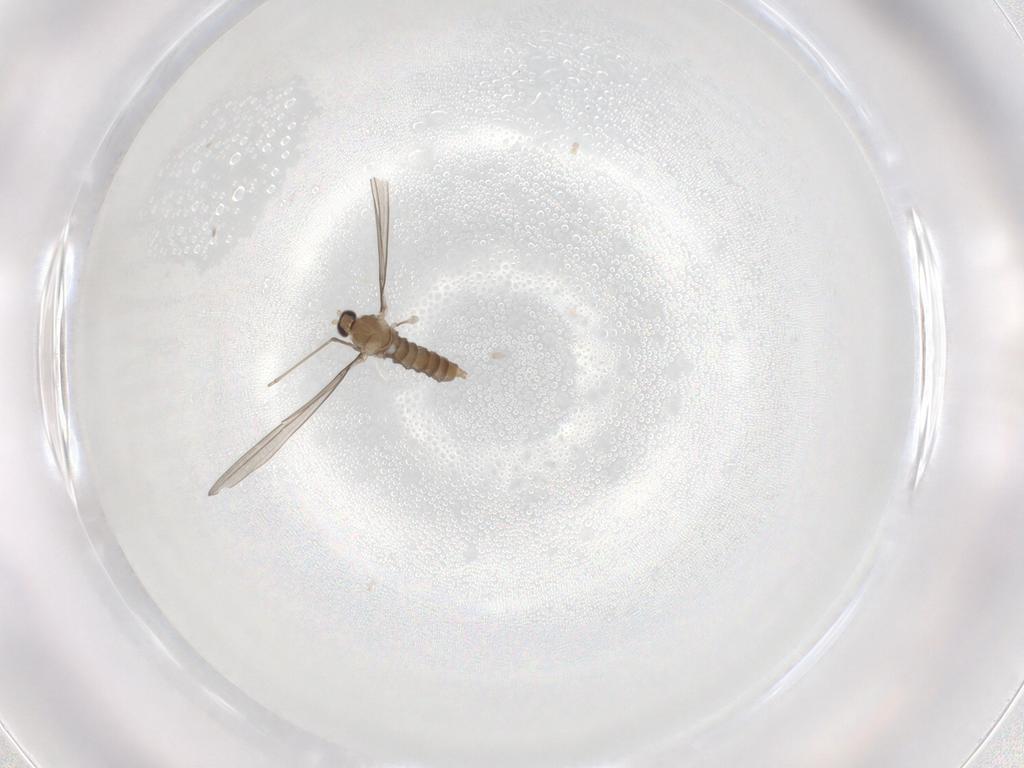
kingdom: Animalia
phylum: Arthropoda
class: Insecta
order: Diptera
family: Cecidomyiidae
